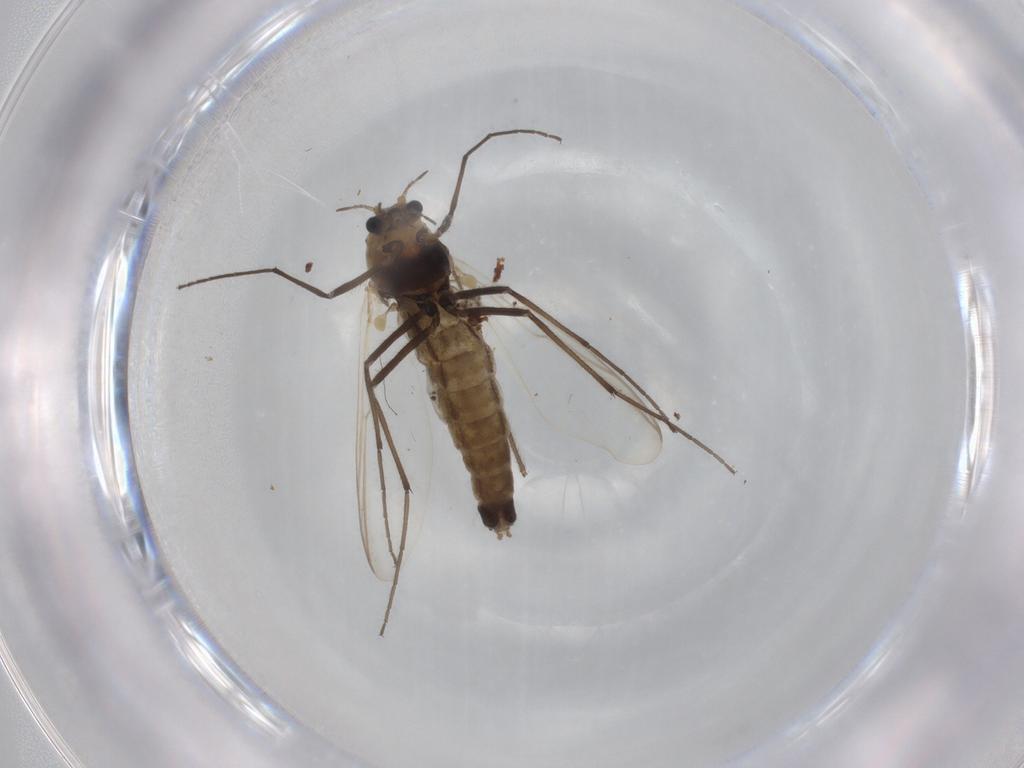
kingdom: Animalia
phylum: Arthropoda
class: Insecta
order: Diptera
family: Chironomidae
